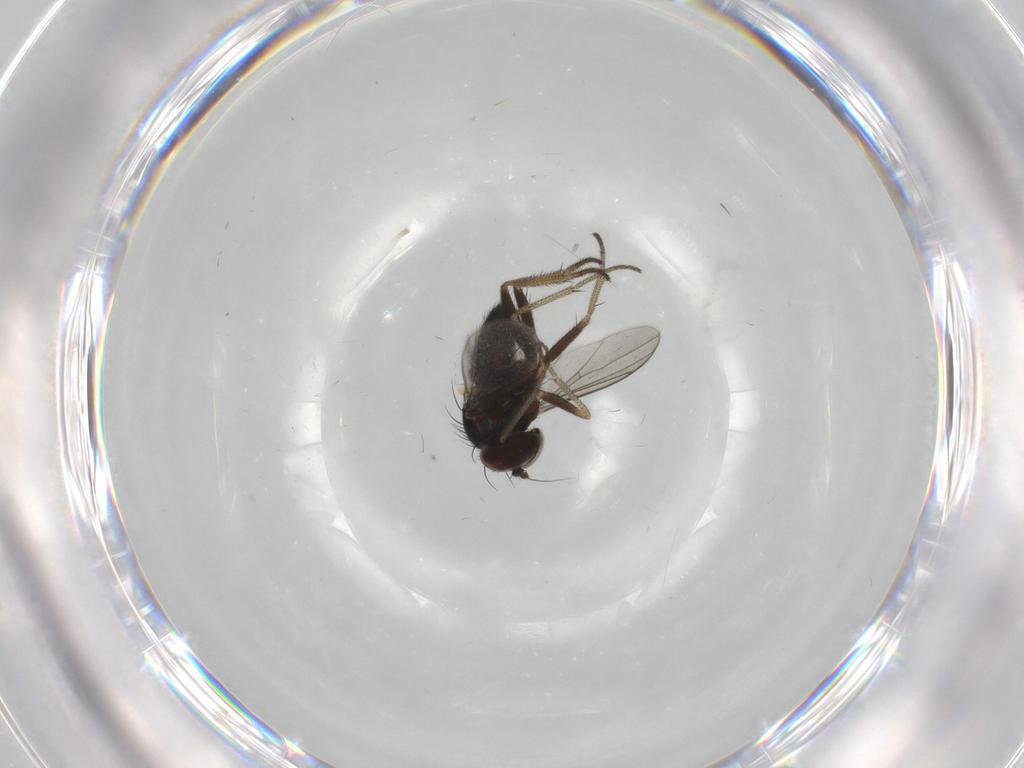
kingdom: Animalia
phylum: Arthropoda
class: Insecta
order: Diptera
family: Dolichopodidae
